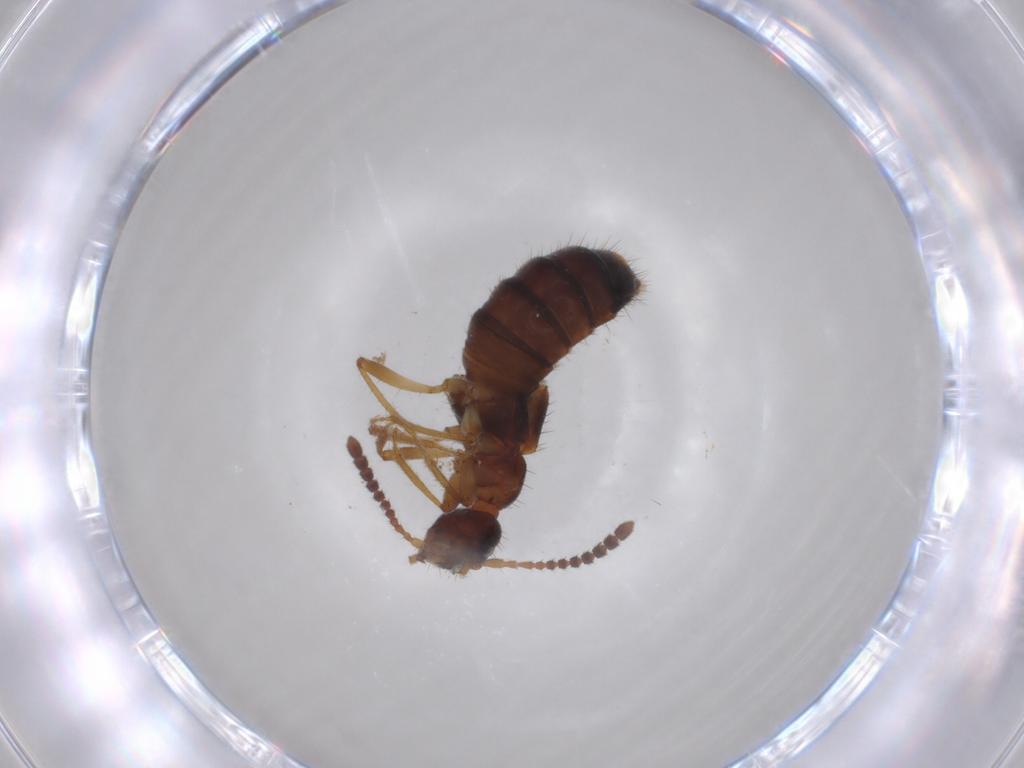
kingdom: Animalia
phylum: Arthropoda
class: Insecta
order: Coleoptera
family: Staphylinidae
